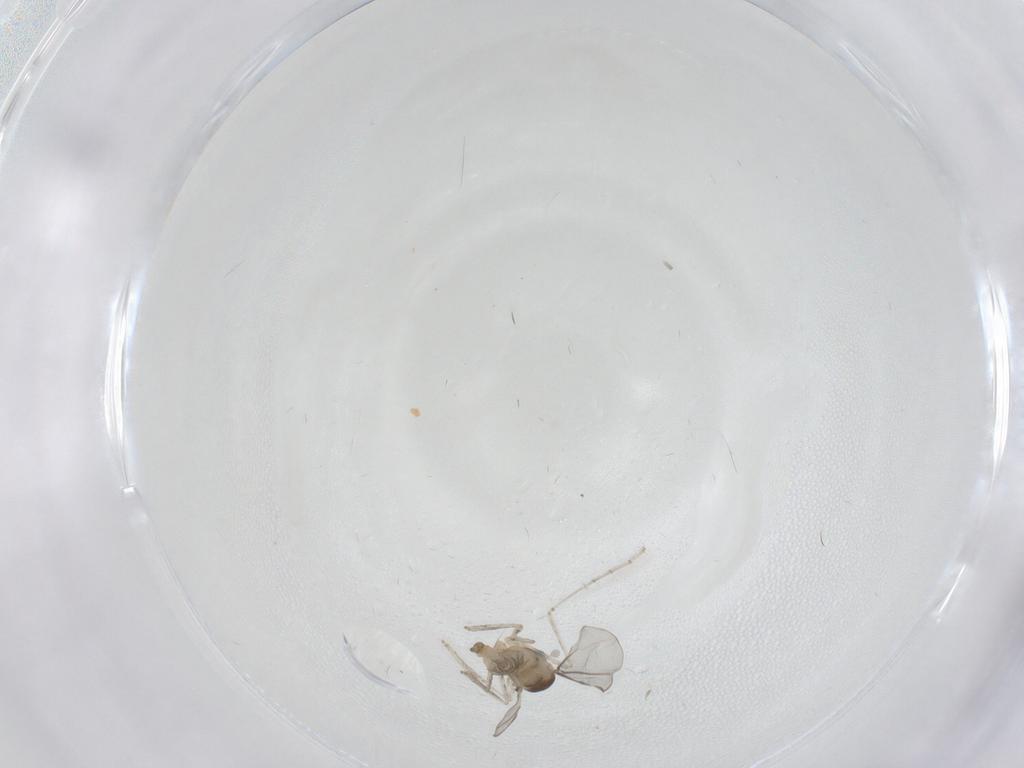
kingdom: Animalia
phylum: Arthropoda
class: Insecta
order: Diptera
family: Cecidomyiidae
